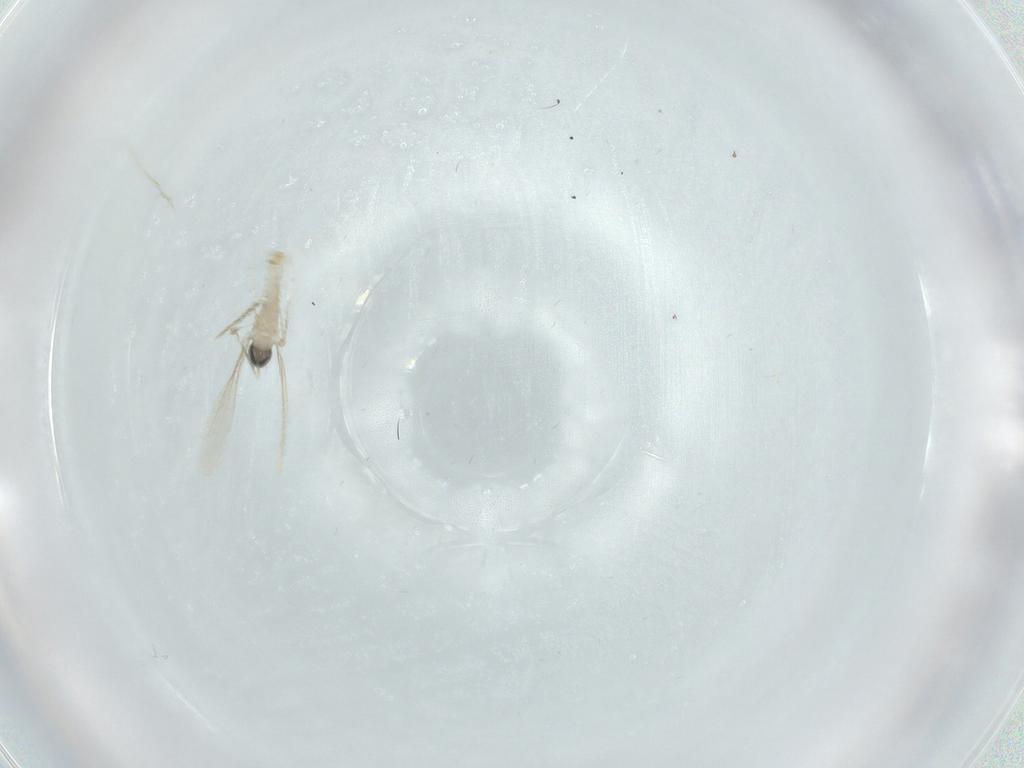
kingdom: Animalia
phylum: Arthropoda
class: Insecta
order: Diptera
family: Cecidomyiidae
